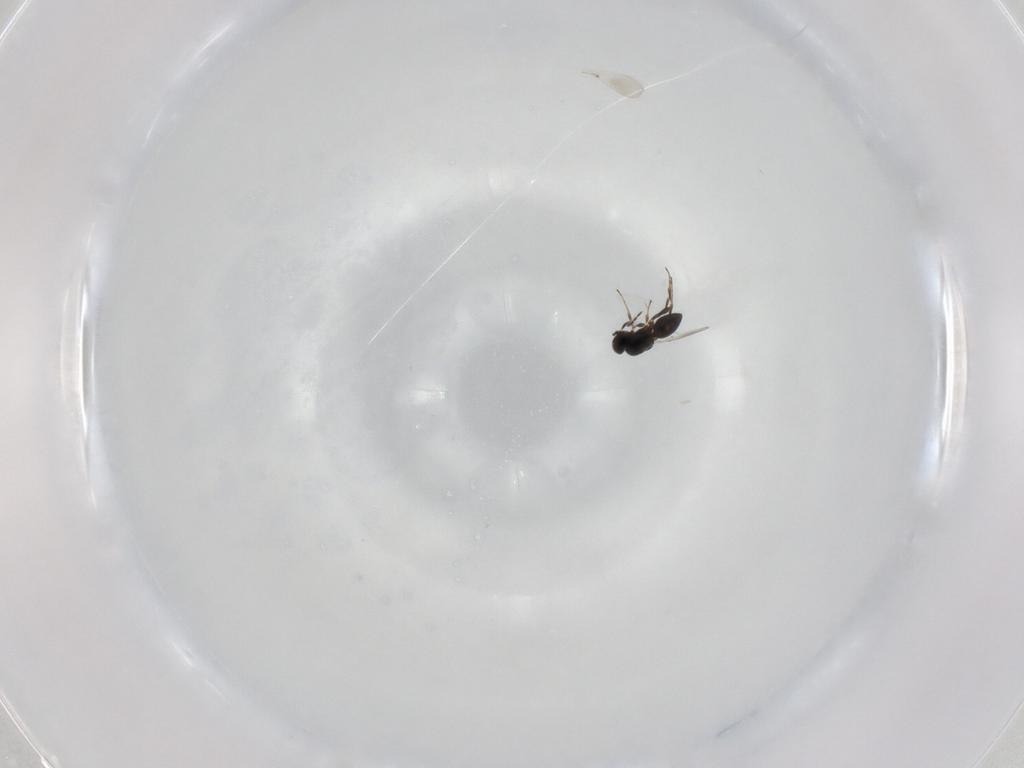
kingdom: Animalia
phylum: Arthropoda
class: Insecta
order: Hymenoptera
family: Platygastridae
